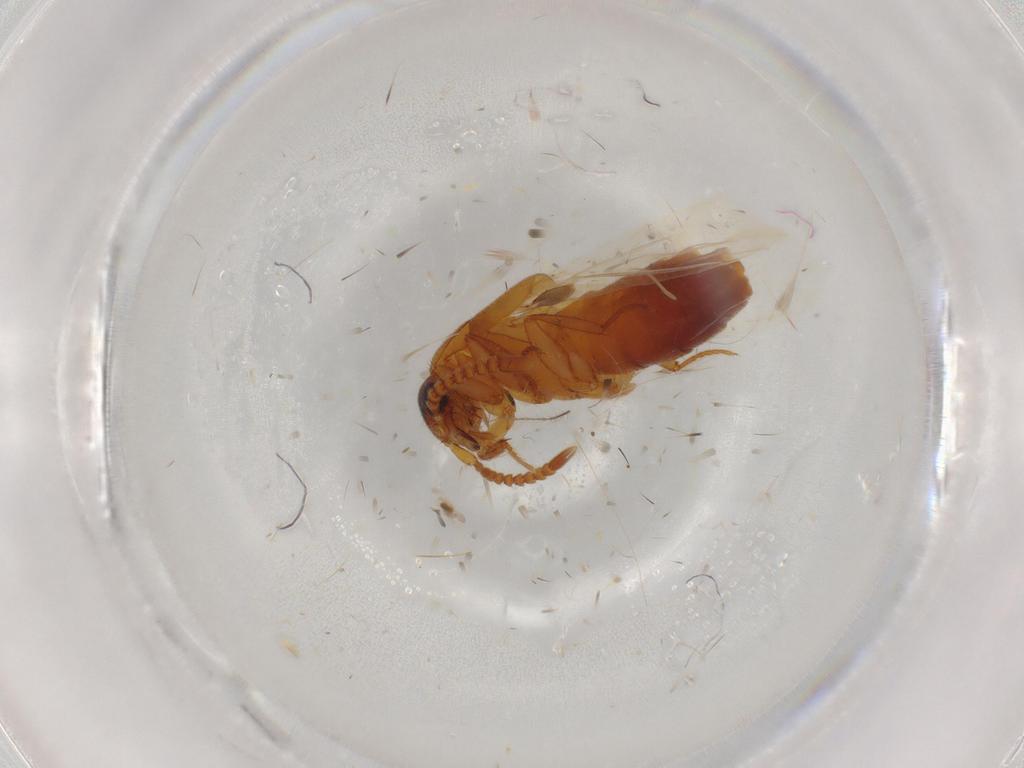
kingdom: Animalia
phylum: Arthropoda
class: Insecta
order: Coleoptera
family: Staphylinidae
